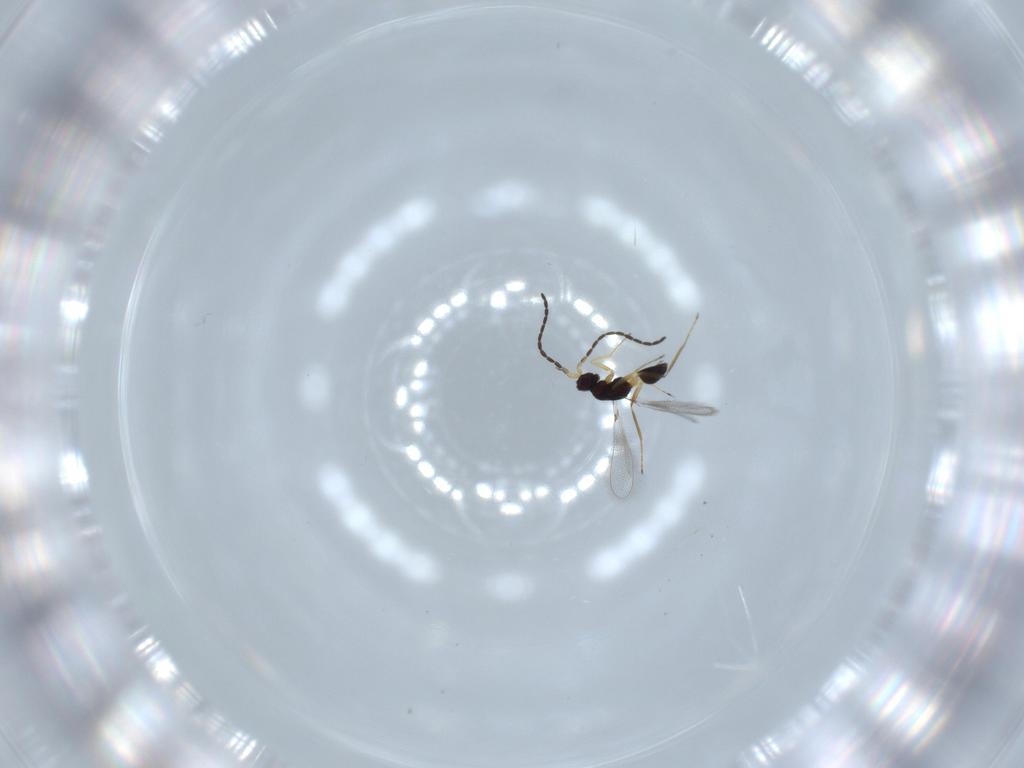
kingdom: Animalia
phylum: Arthropoda
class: Insecta
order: Hymenoptera
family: Mymaridae
